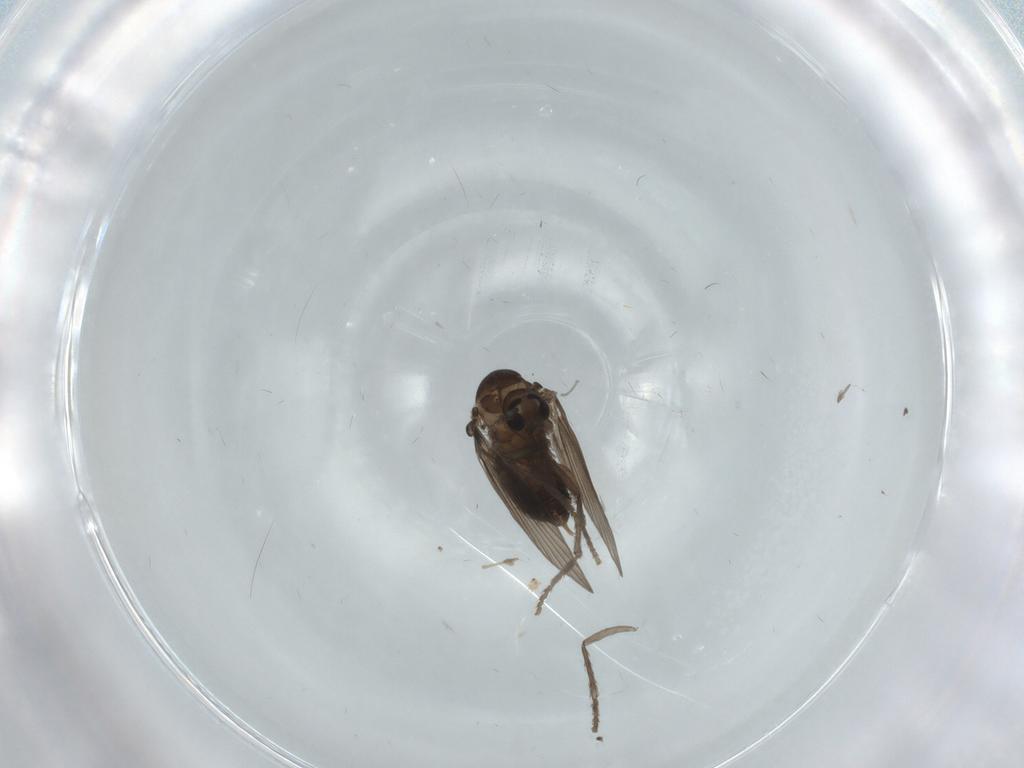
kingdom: Animalia
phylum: Arthropoda
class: Insecta
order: Diptera
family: Psychodidae
